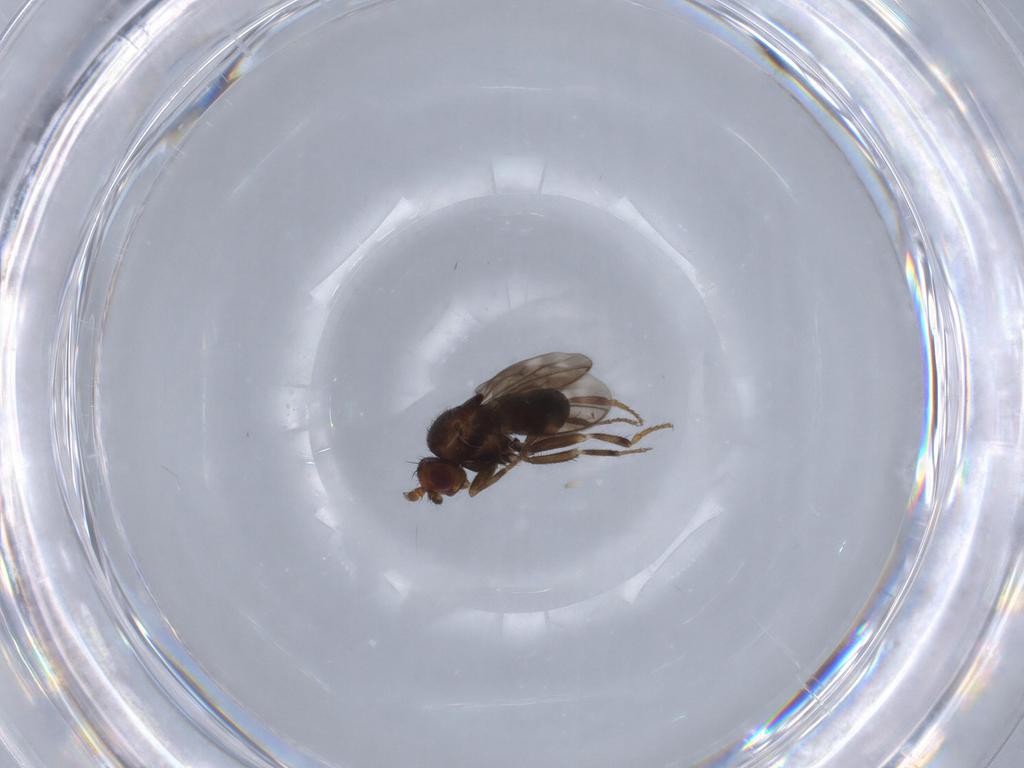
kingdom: Animalia
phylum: Arthropoda
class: Insecta
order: Diptera
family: Sphaeroceridae
